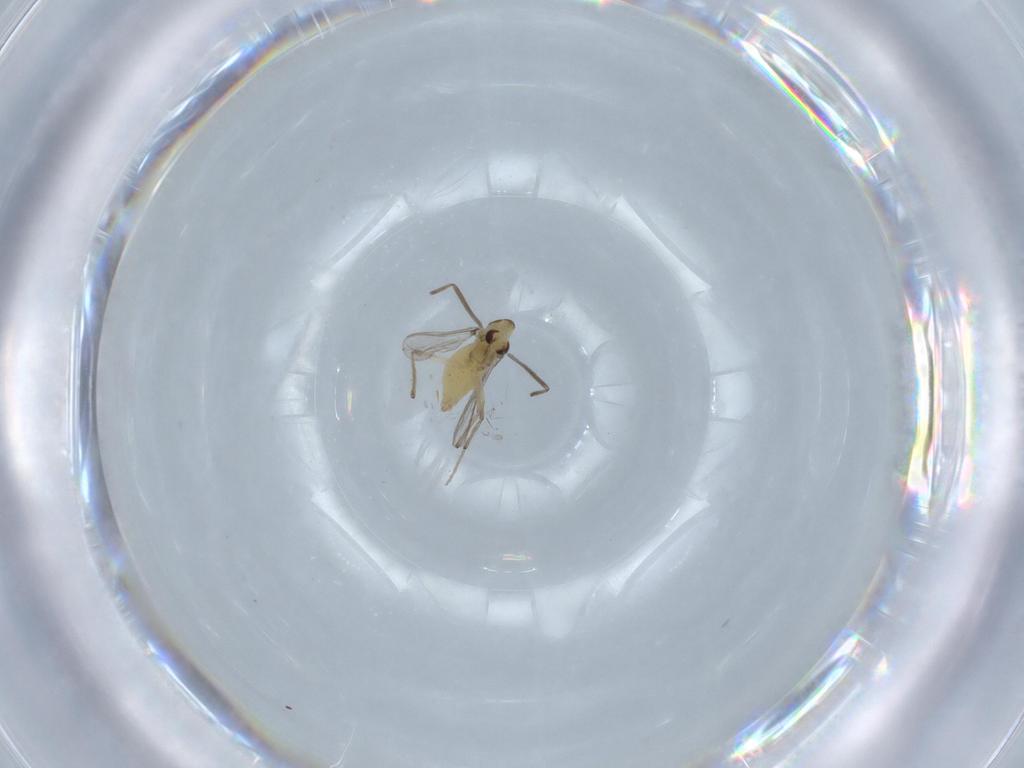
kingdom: Animalia
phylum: Arthropoda
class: Insecta
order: Diptera
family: Chironomidae
